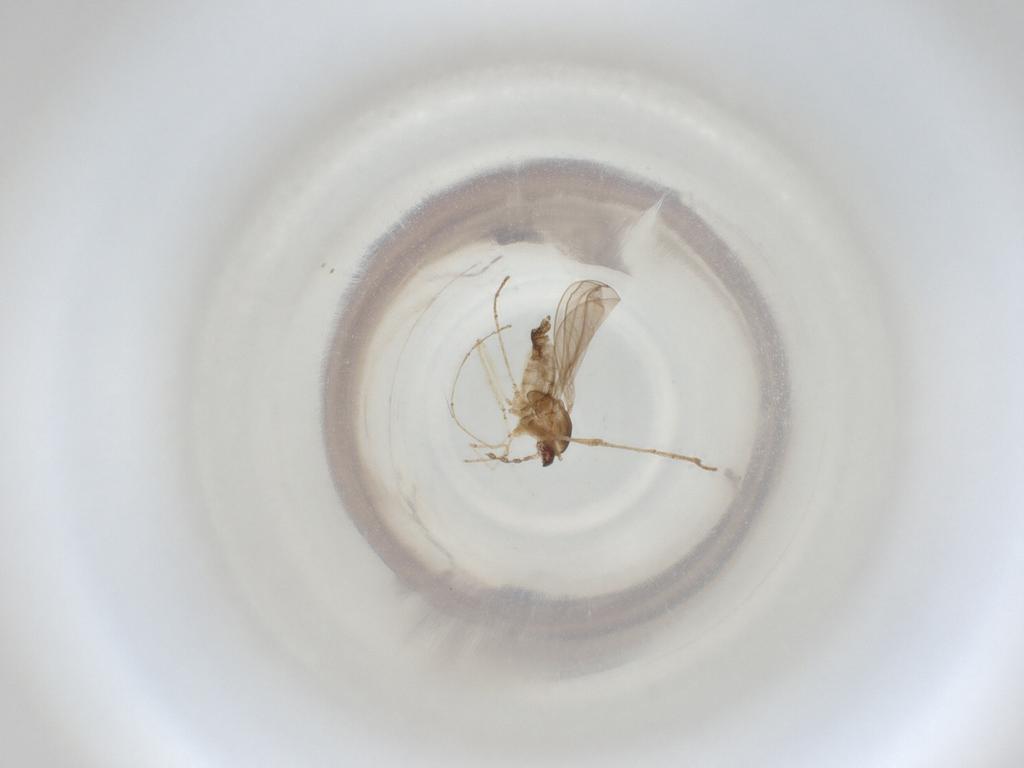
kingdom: Animalia
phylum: Arthropoda
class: Insecta
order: Diptera
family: Cecidomyiidae
